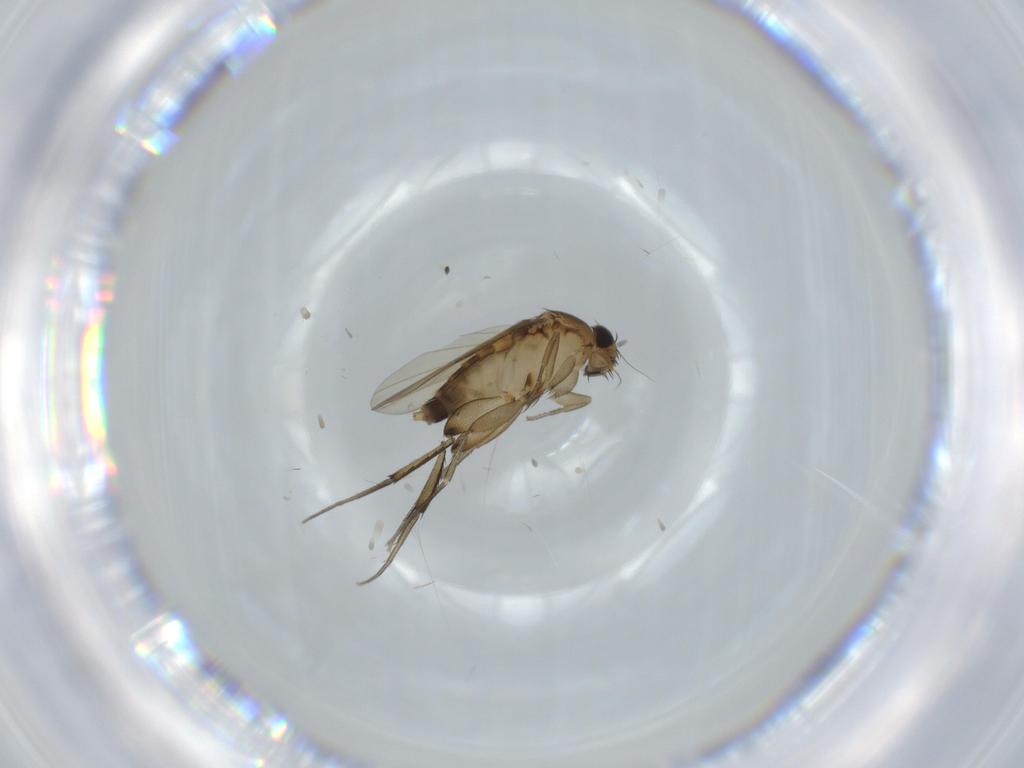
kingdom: Animalia
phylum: Arthropoda
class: Insecta
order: Diptera
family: Phoridae
